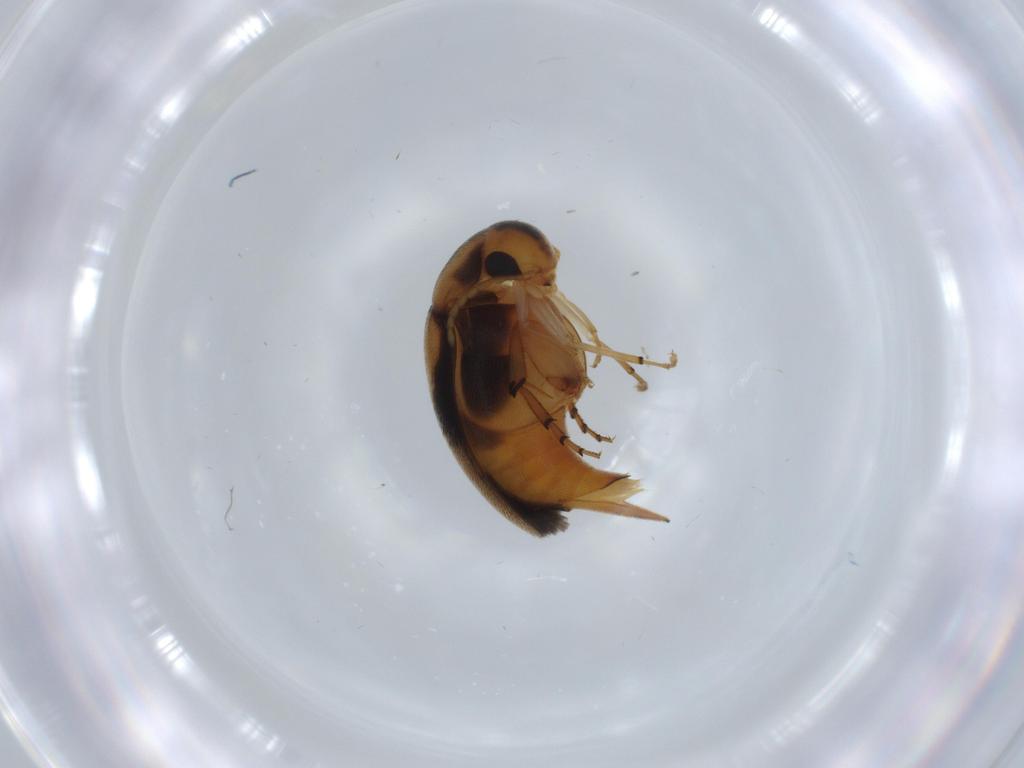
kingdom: Animalia
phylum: Arthropoda
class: Insecta
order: Coleoptera
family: Mordellidae
